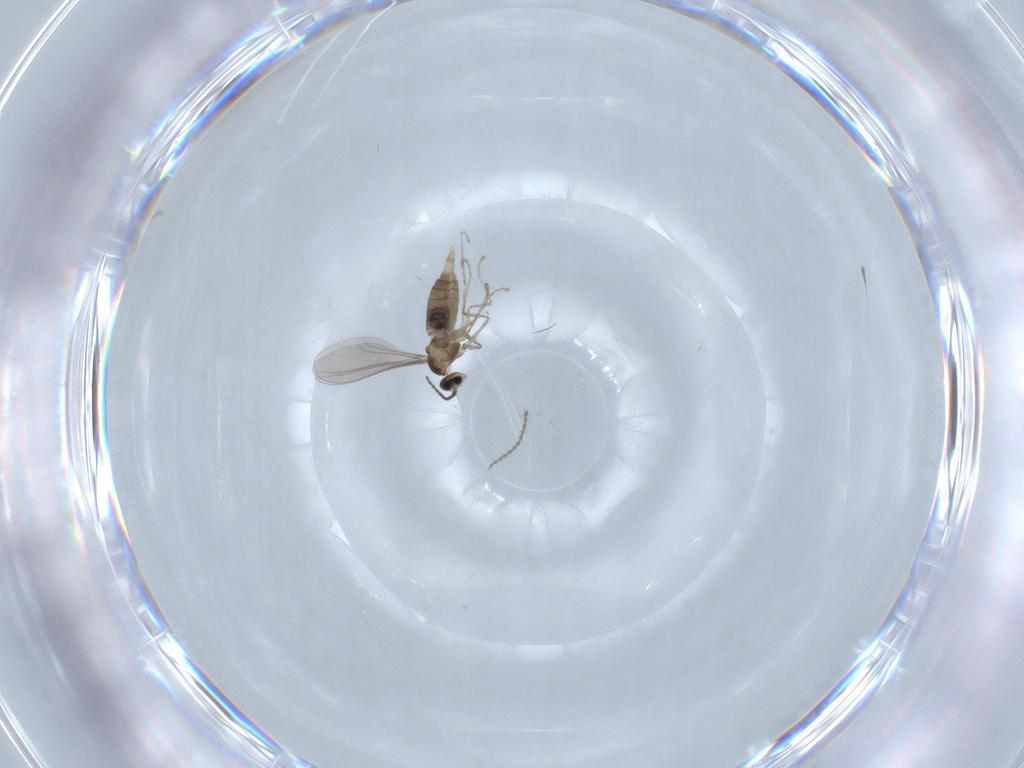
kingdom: Animalia
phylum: Arthropoda
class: Insecta
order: Diptera
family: Cecidomyiidae
